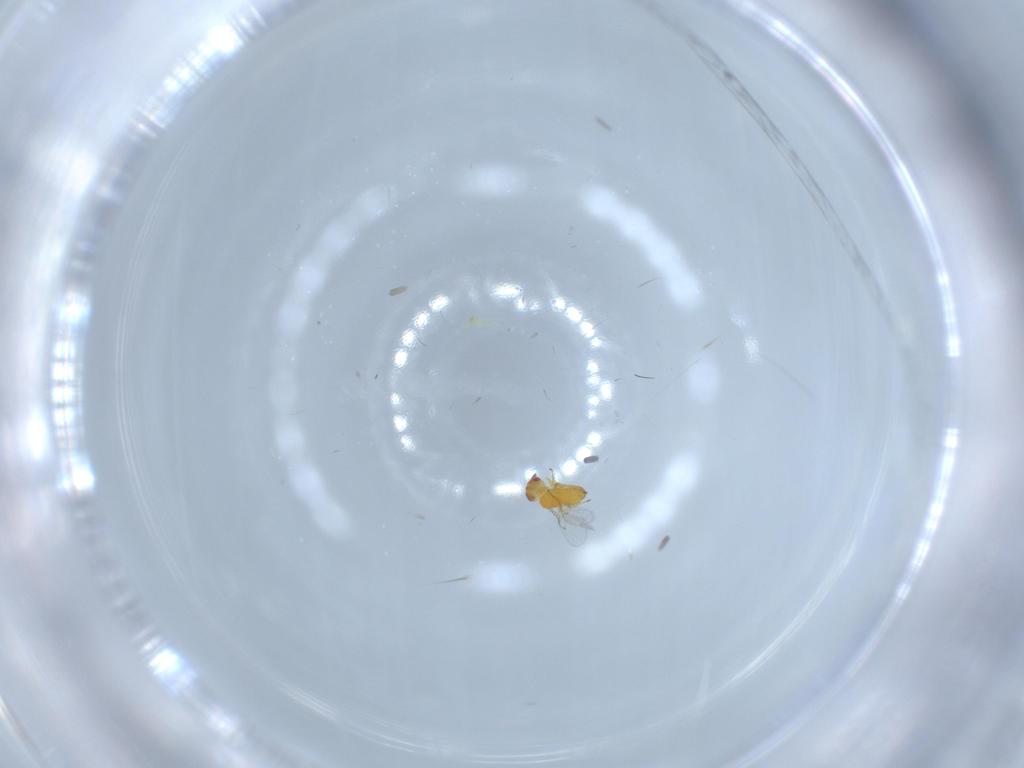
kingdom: Animalia
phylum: Arthropoda
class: Insecta
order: Hymenoptera
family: Trichogrammatidae
